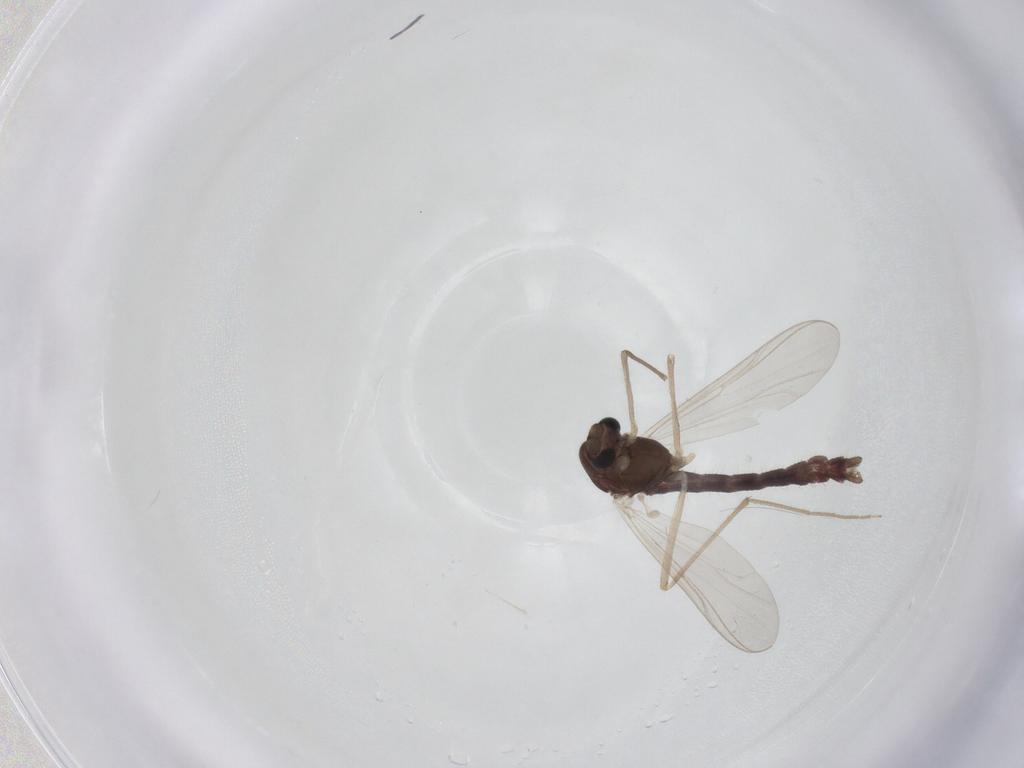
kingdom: Animalia
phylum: Arthropoda
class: Insecta
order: Diptera
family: Chironomidae
